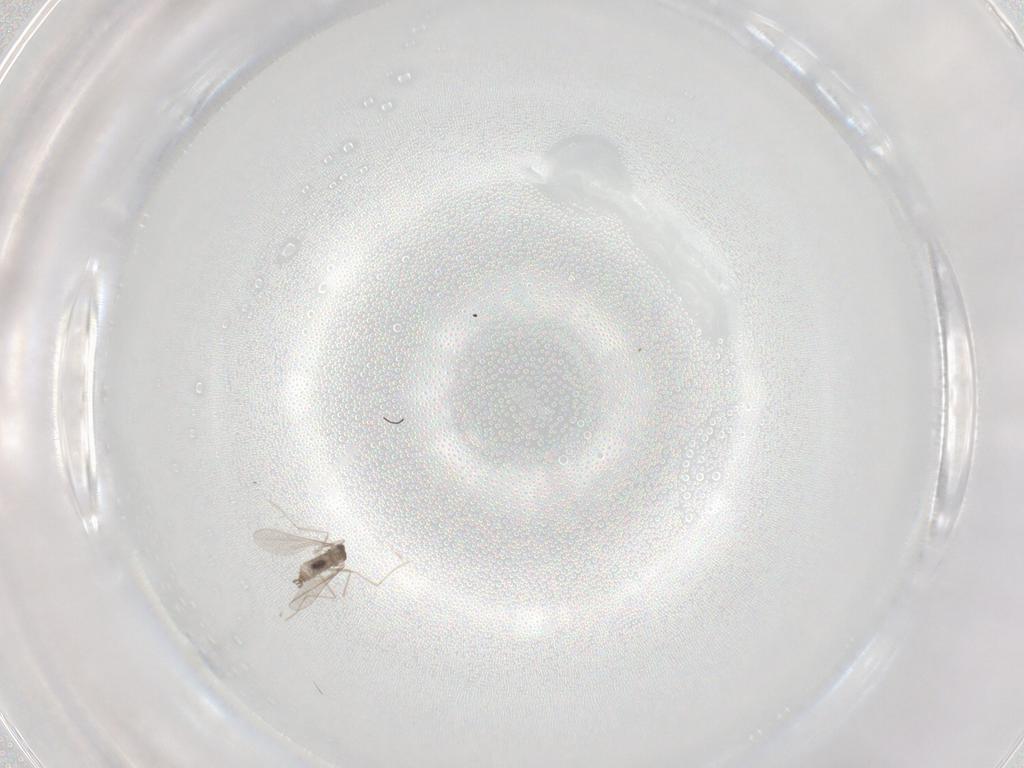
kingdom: Animalia
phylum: Arthropoda
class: Insecta
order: Diptera
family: Cecidomyiidae
